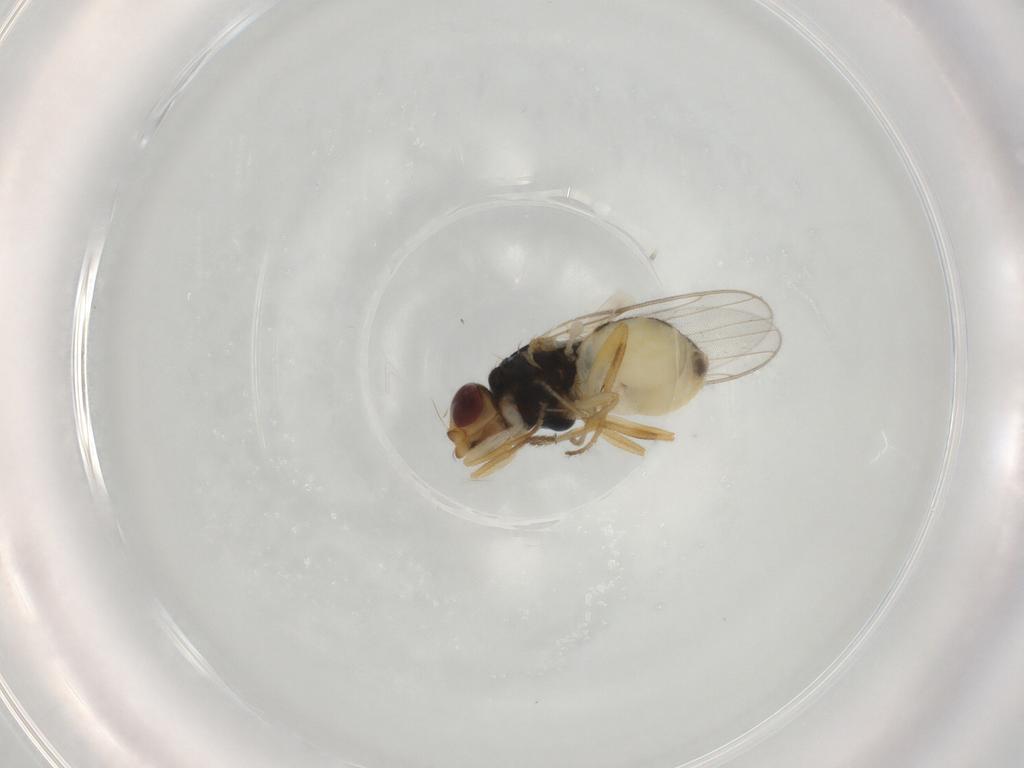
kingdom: Animalia
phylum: Arthropoda
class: Insecta
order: Diptera
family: Chloropidae
